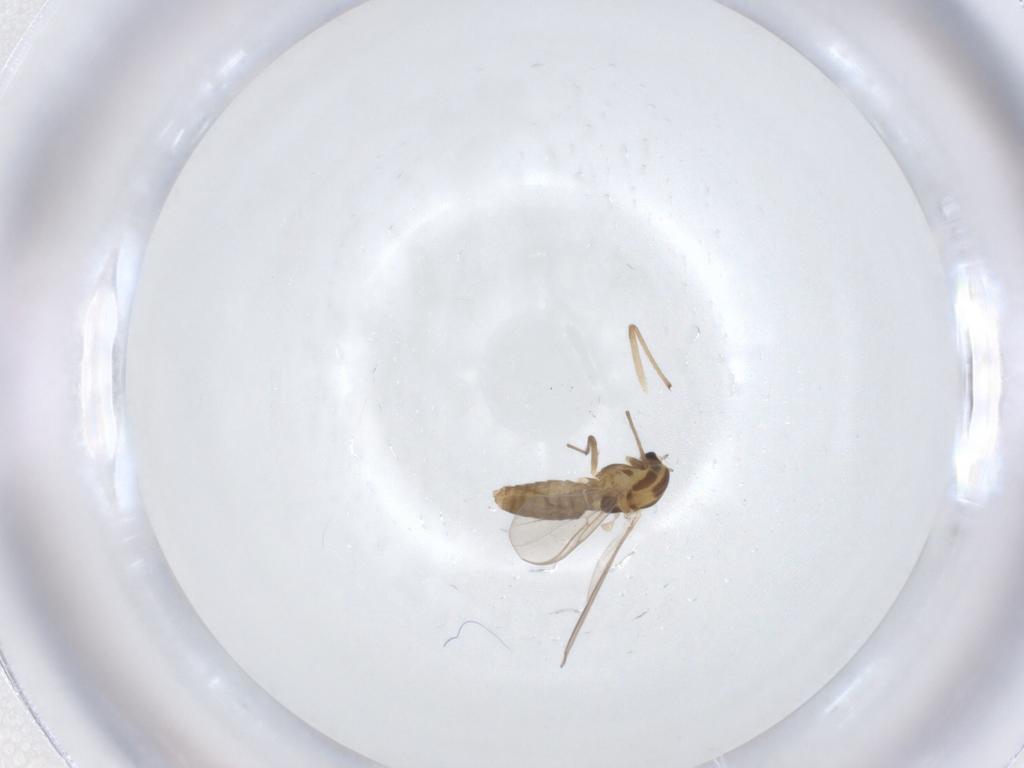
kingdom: Animalia
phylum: Arthropoda
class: Insecta
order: Diptera
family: Chironomidae
